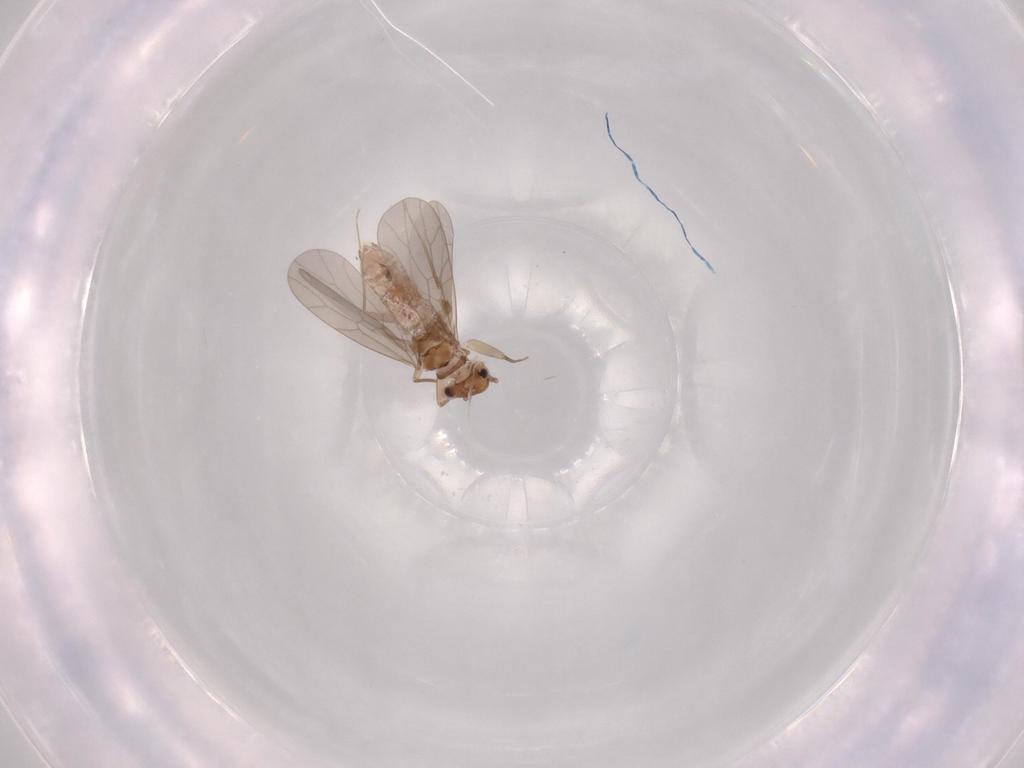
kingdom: Animalia
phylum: Arthropoda
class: Insecta
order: Psocodea
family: Lepidopsocidae
